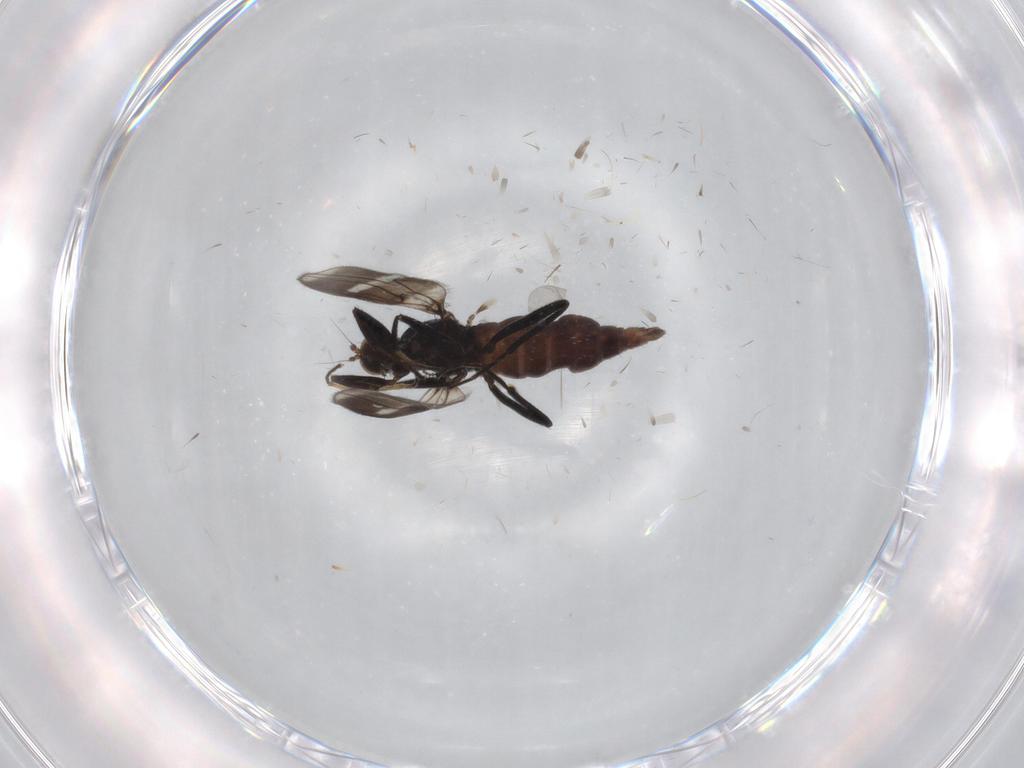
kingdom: Animalia
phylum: Arthropoda
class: Insecta
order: Diptera
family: Hybotidae
